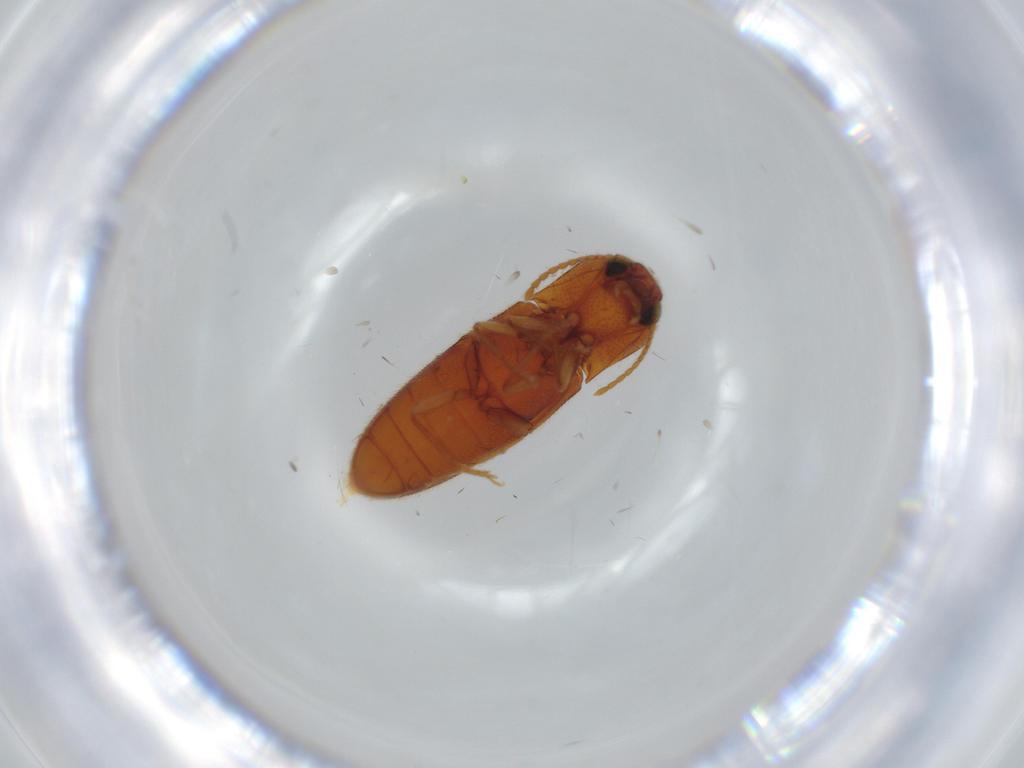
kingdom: Animalia
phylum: Arthropoda
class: Insecta
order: Coleoptera
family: Elateridae
